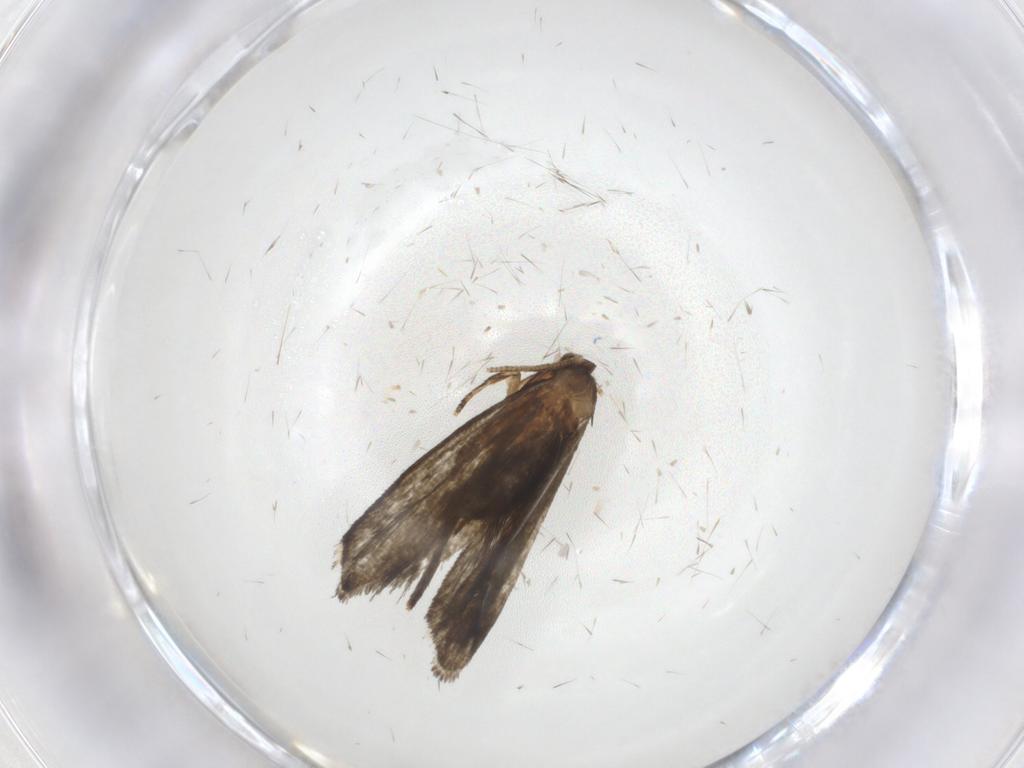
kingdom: Animalia
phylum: Arthropoda
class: Insecta
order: Lepidoptera
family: Tineidae
